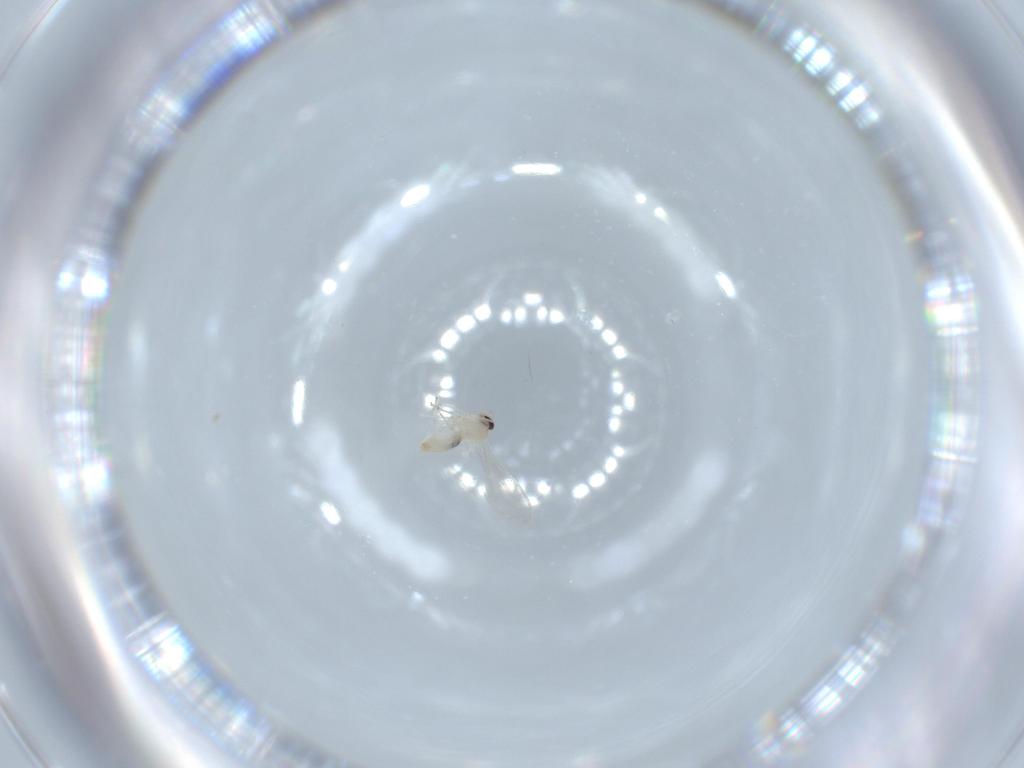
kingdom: Animalia
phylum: Arthropoda
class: Insecta
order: Diptera
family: Cecidomyiidae
